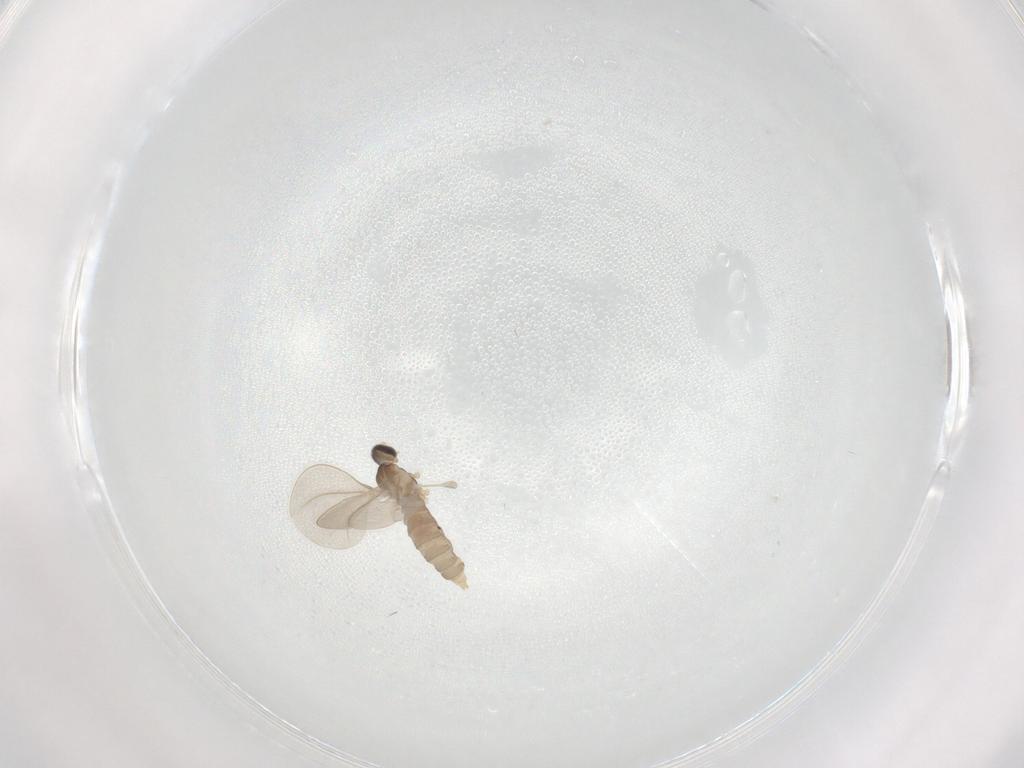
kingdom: Animalia
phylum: Arthropoda
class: Insecta
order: Diptera
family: Cecidomyiidae
